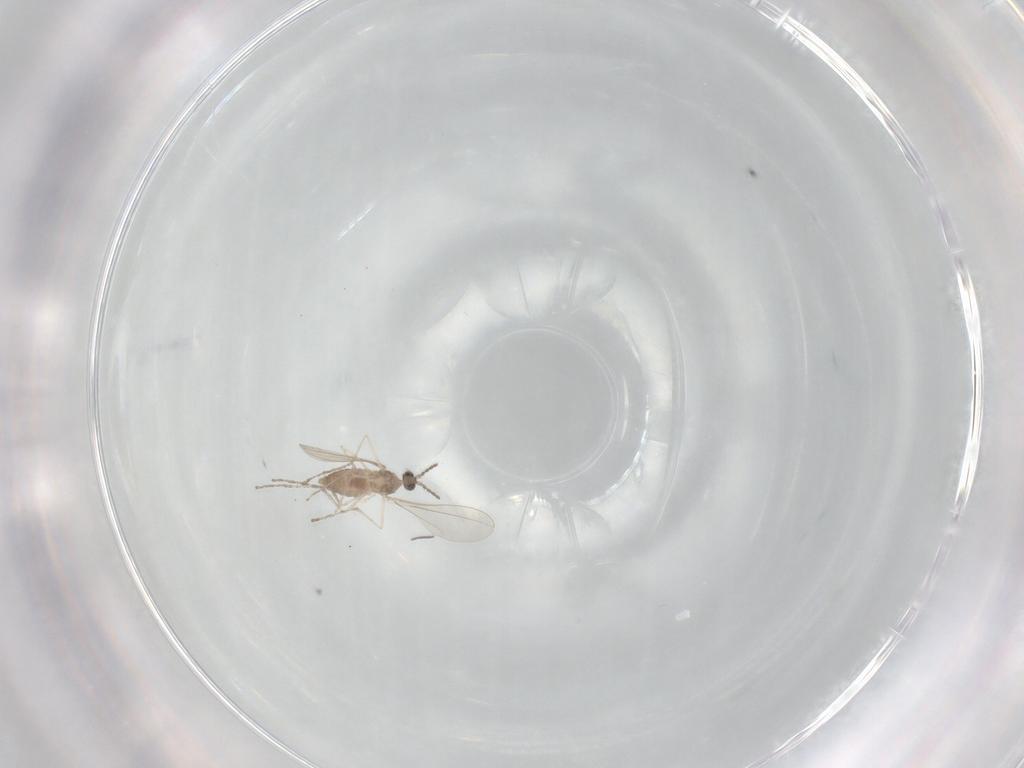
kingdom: Animalia
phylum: Arthropoda
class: Insecta
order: Diptera
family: Cecidomyiidae
